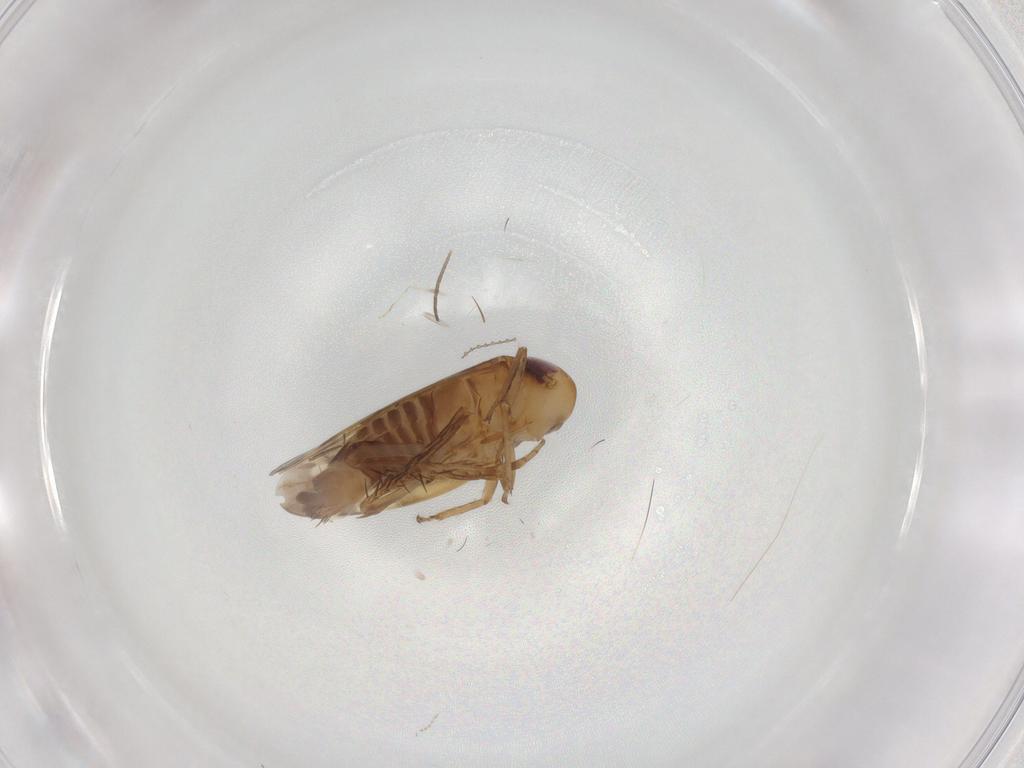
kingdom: Animalia
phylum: Arthropoda
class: Insecta
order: Hemiptera
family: Cicadellidae
